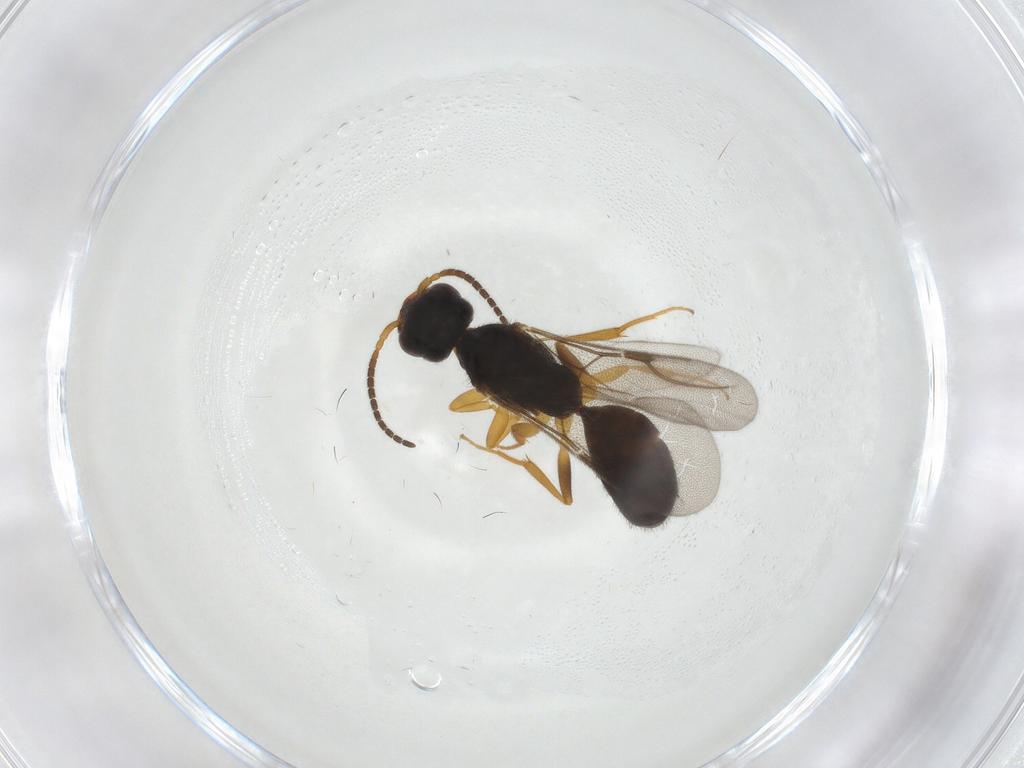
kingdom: Animalia
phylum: Arthropoda
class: Insecta
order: Hymenoptera
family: Bethylidae
